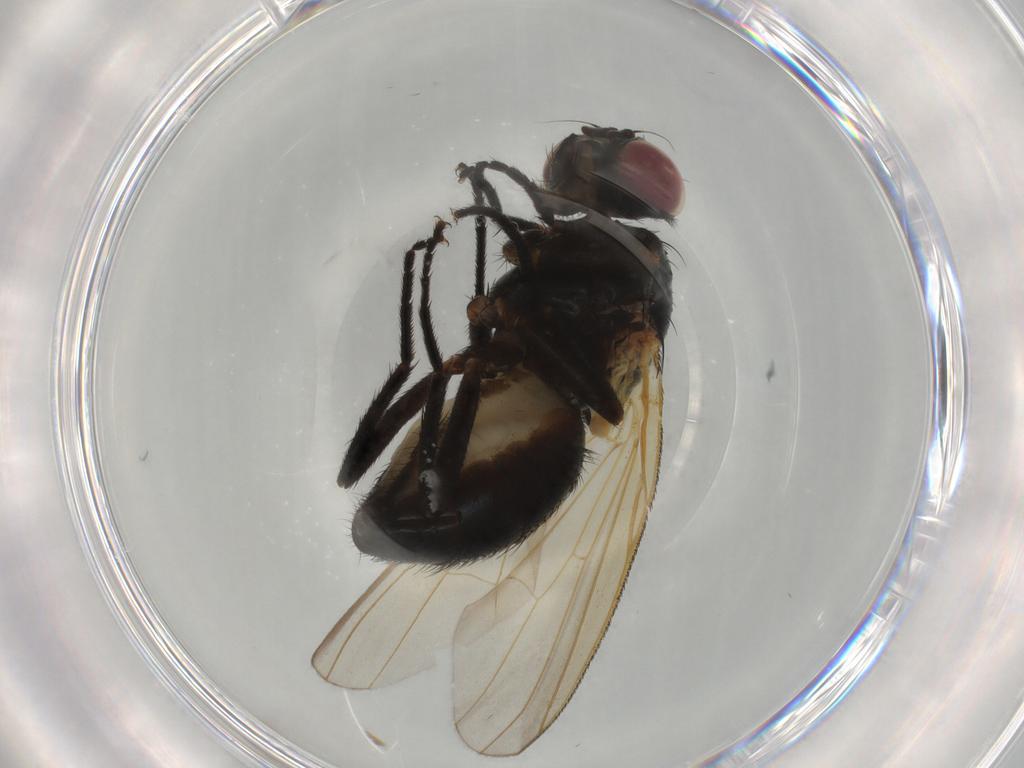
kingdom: Animalia
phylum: Arthropoda
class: Insecta
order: Diptera
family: Fannia
